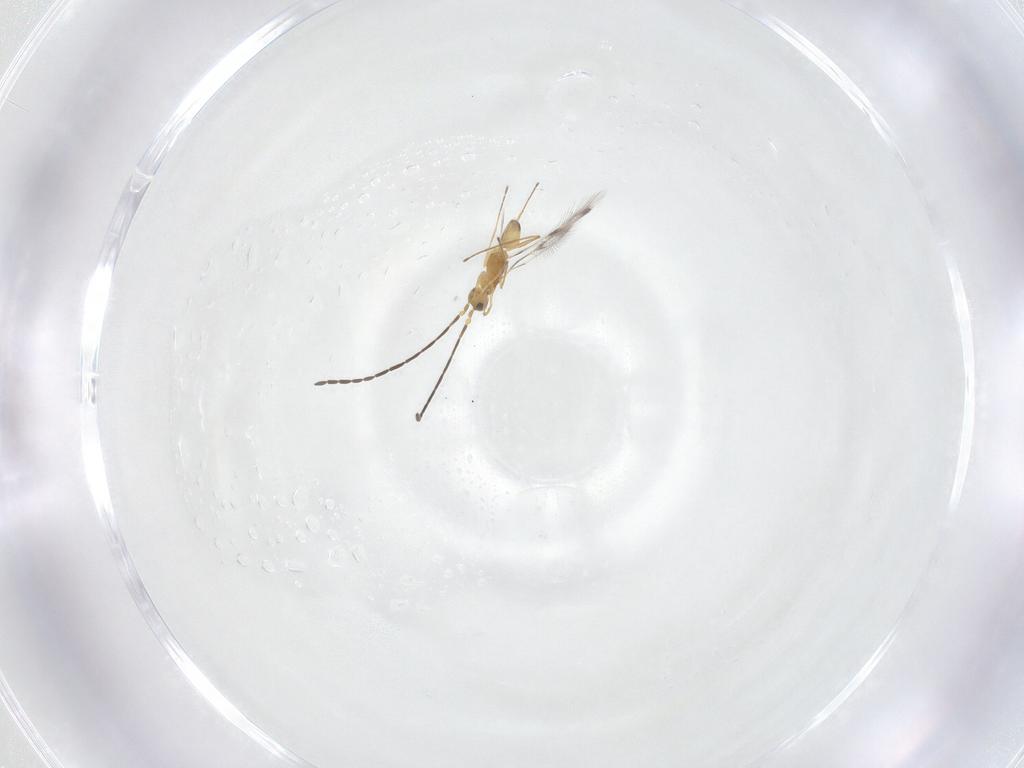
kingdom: Animalia
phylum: Arthropoda
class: Insecta
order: Hymenoptera
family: Mymaridae
